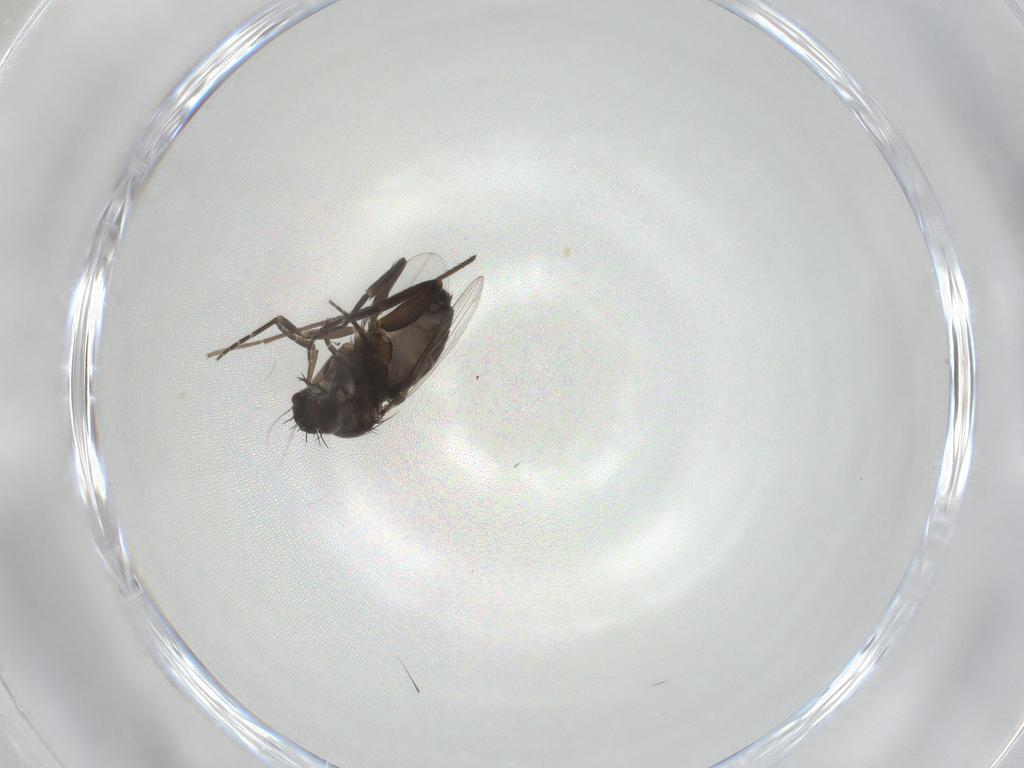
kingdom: Animalia
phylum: Arthropoda
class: Insecta
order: Diptera
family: Phoridae
